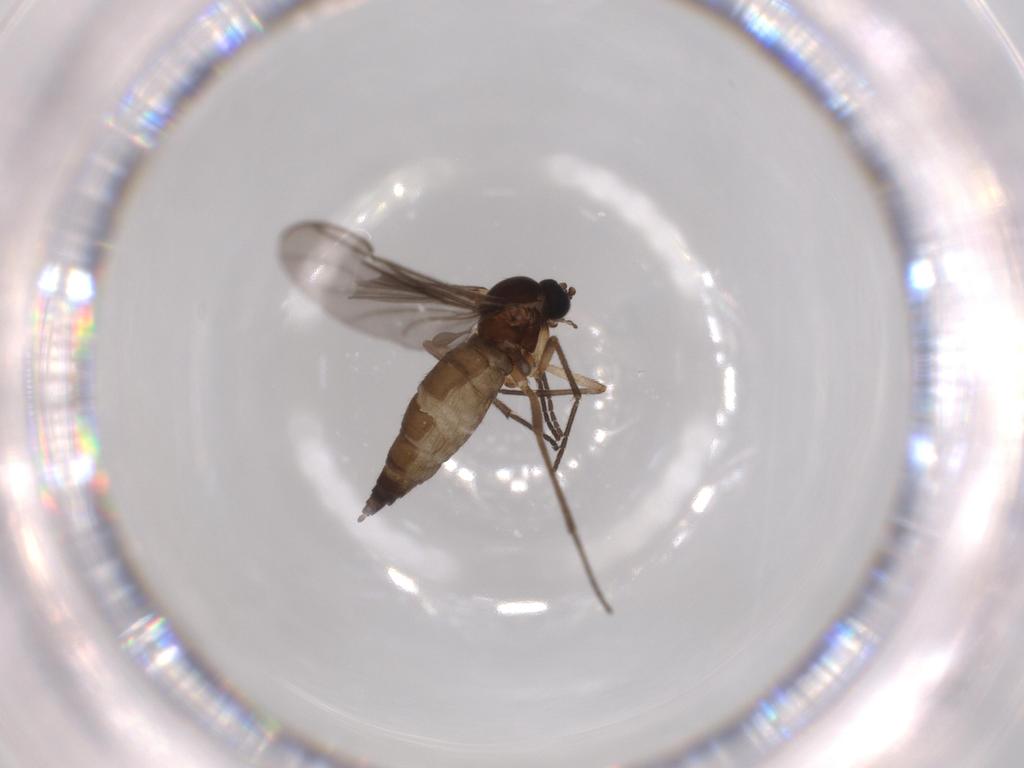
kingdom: Animalia
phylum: Arthropoda
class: Insecta
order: Diptera
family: Sciaridae
